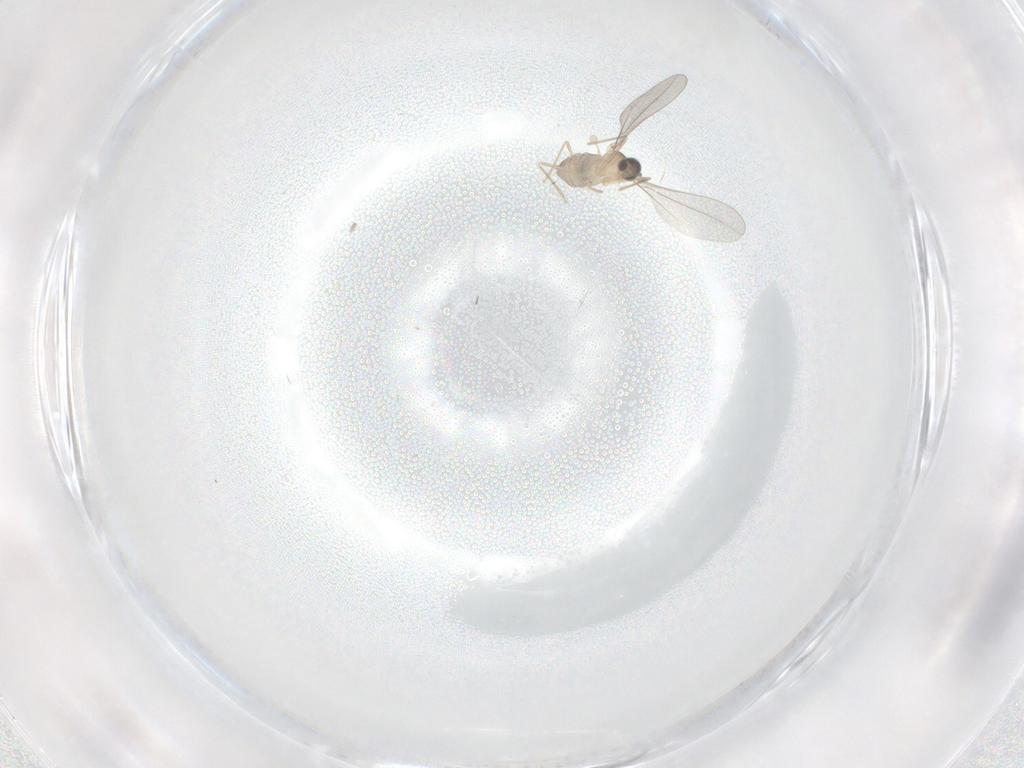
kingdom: Animalia
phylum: Arthropoda
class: Insecta
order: Diptera
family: Cecidomyiidae
